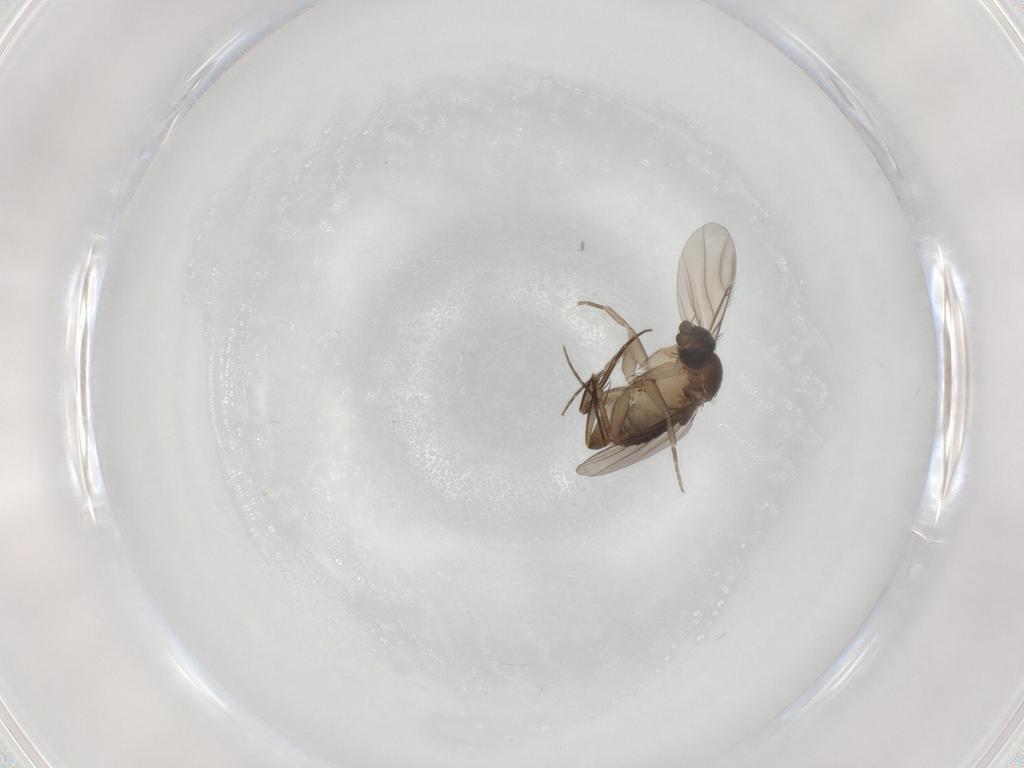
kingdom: Animalia
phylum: Arthropoda
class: Insecta
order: Diptera
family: Phoridae
